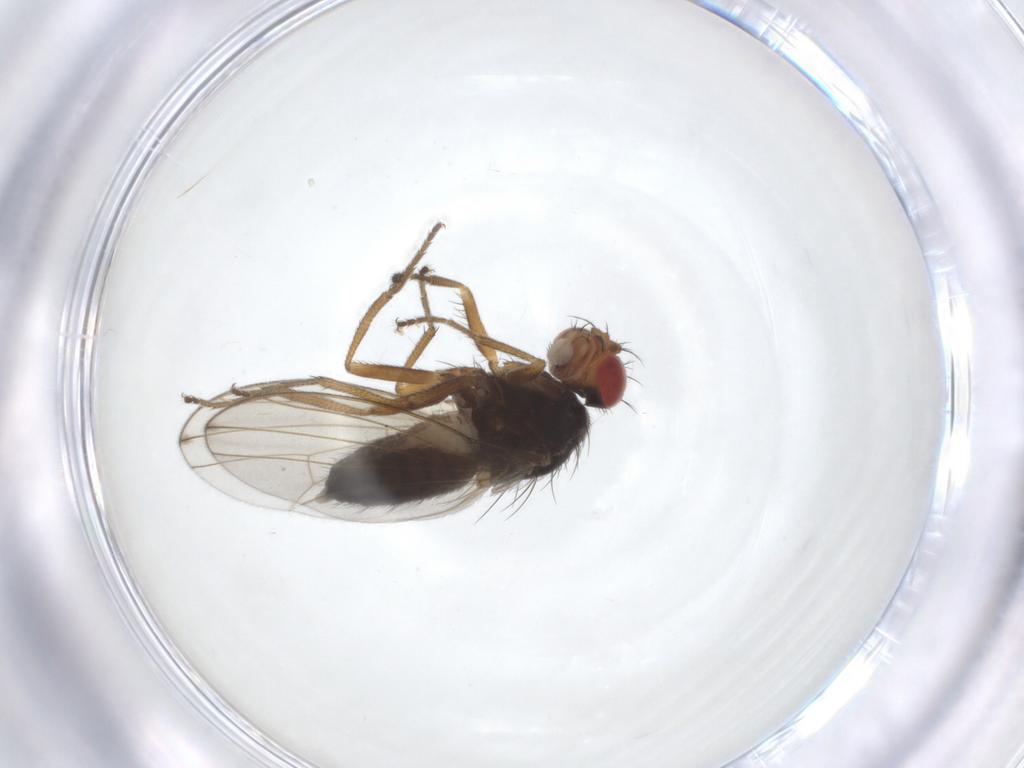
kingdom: Animalia
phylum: Arthropoda
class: Insecta
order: Diptera
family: Drosophilidae
